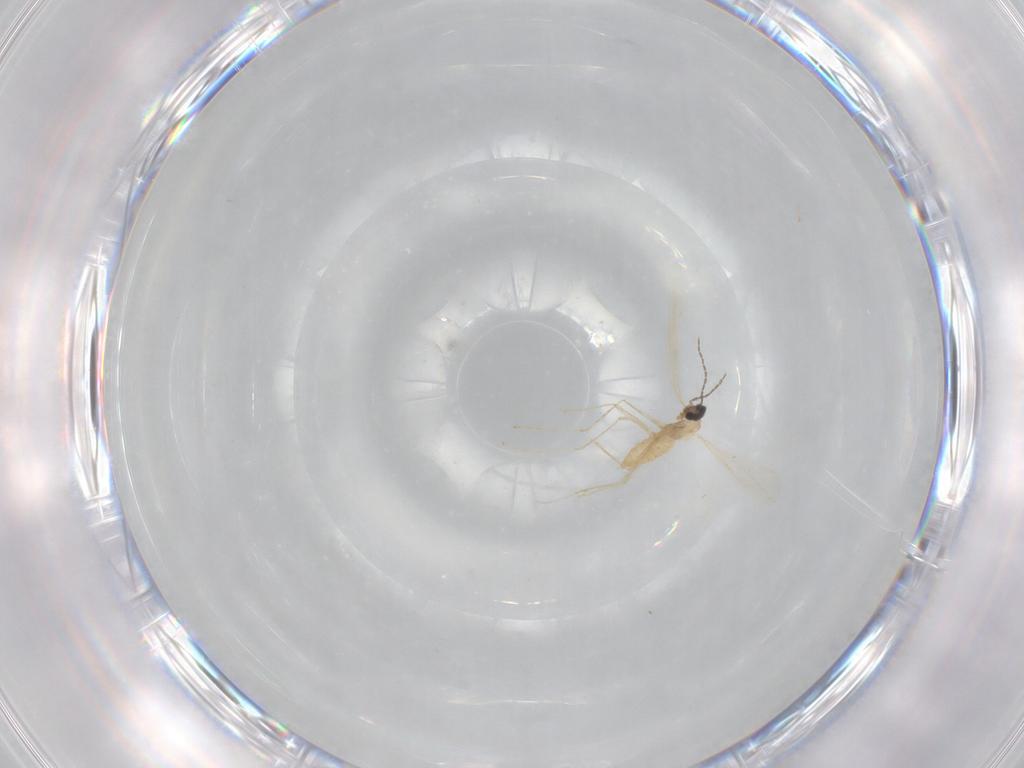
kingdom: Animalia
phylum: Arthropoda
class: Insecta
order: Diptera
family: Cecidomyiidae
